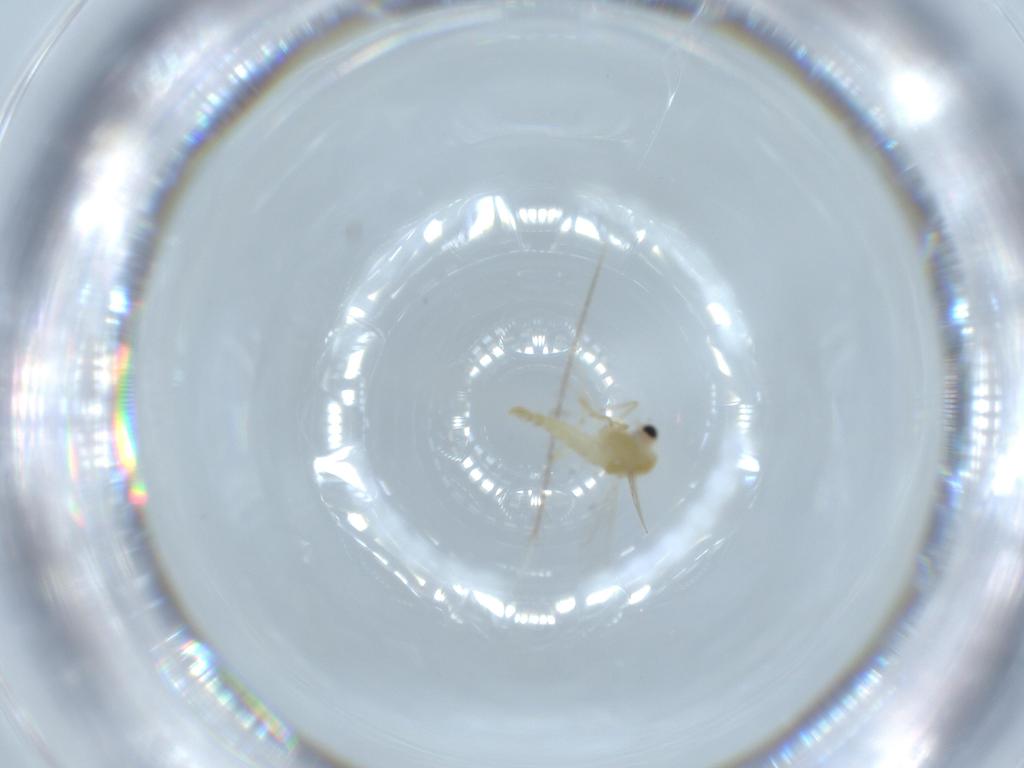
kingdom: Animalia
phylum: Arthropoda
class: Insecta
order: Diptera
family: Chironomidae
